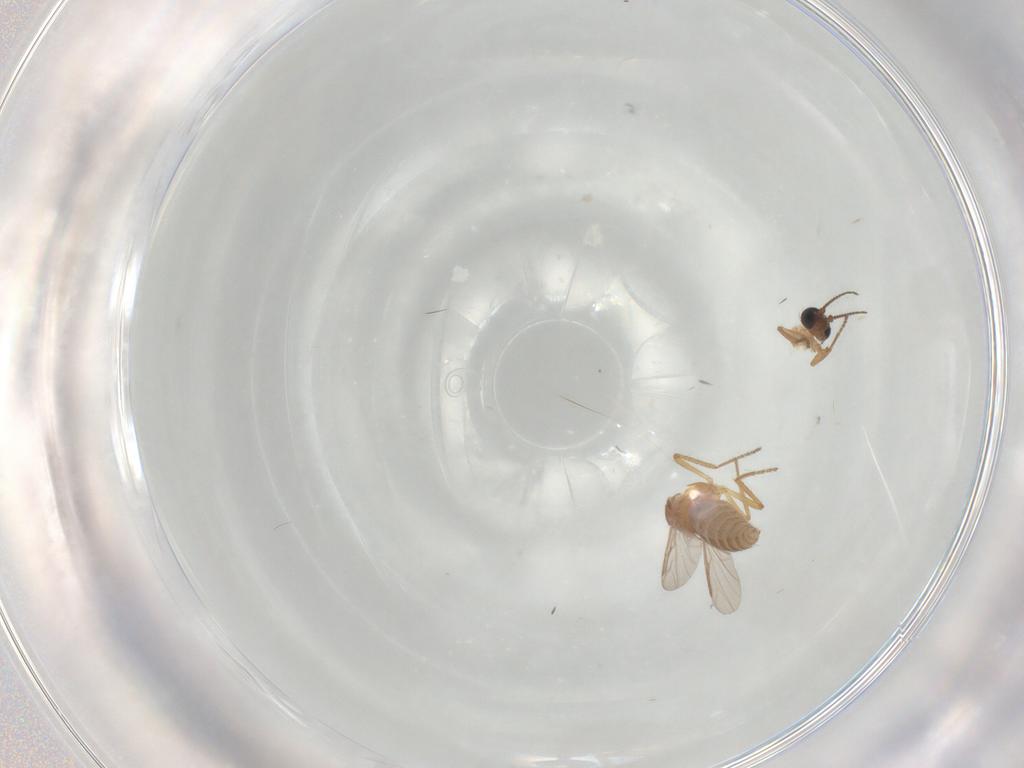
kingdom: Animalia
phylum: Arthropoda
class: Insecta
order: Diptera
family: Ceratopogonidae
